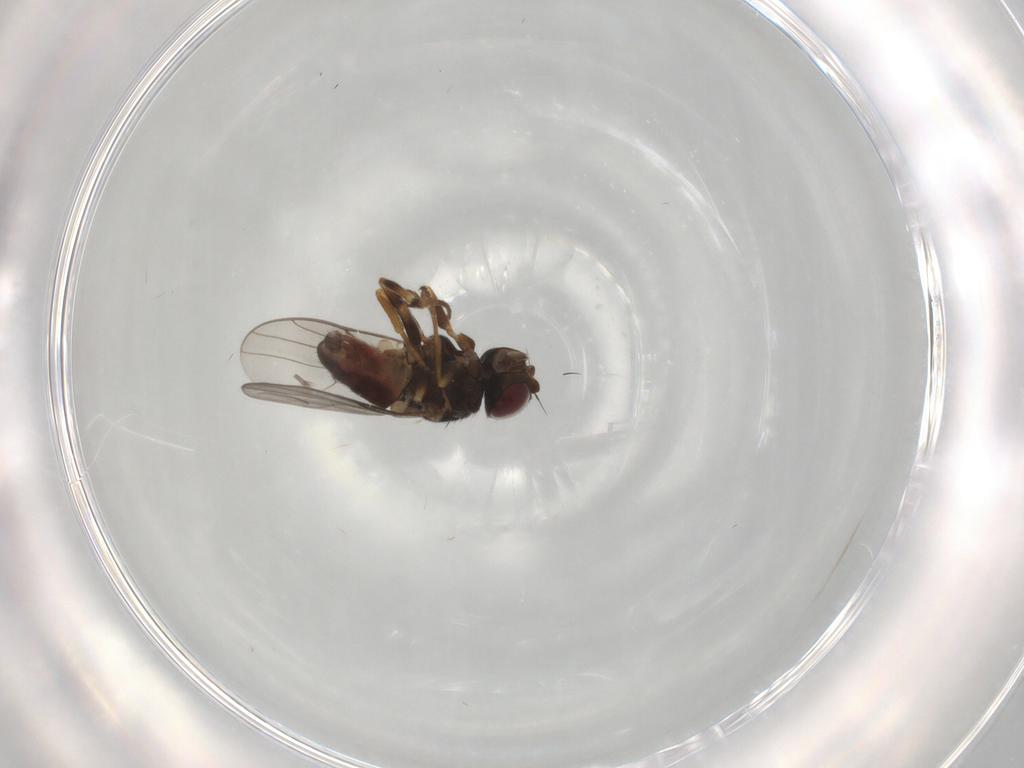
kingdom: Animalia
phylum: Arthropoda
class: Insecta
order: Diptera
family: Chloropidae
